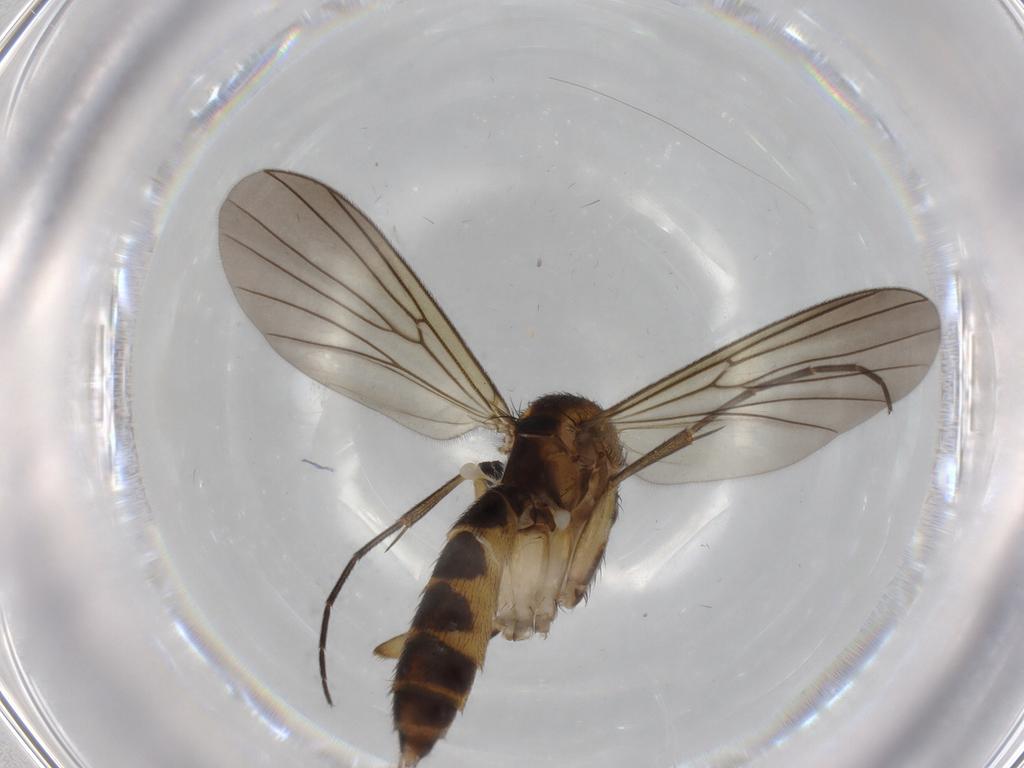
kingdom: Animalia
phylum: Arthropoda
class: Insecta
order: Diptera
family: Mycetophilidae
